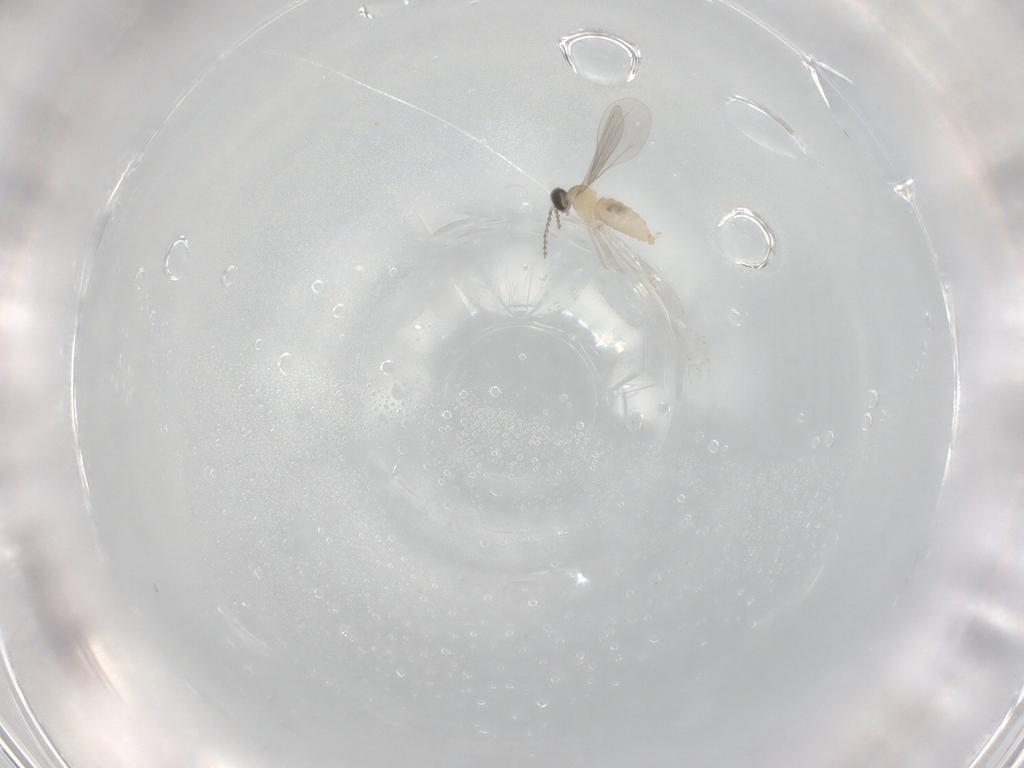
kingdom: Animalia
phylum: Arthropoda
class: Insecta
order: Diptera
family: Cecidomyiidae
